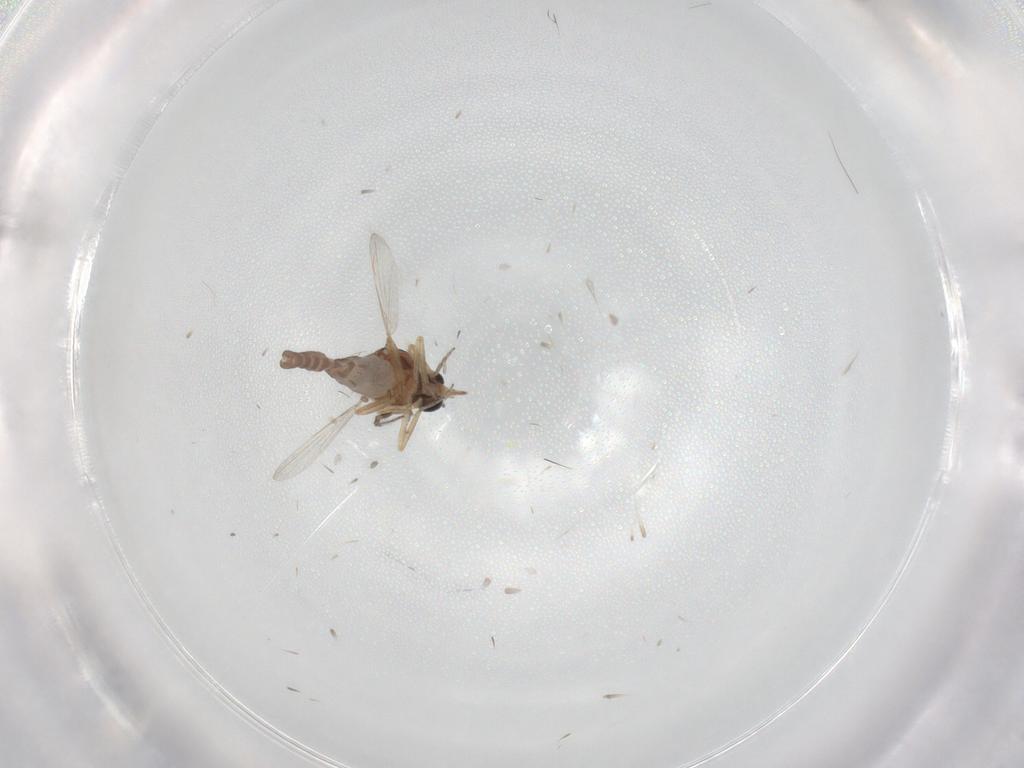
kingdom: Animalia
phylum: Arthropoda
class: Insecta
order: Diptera
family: Ceratopogonidae
